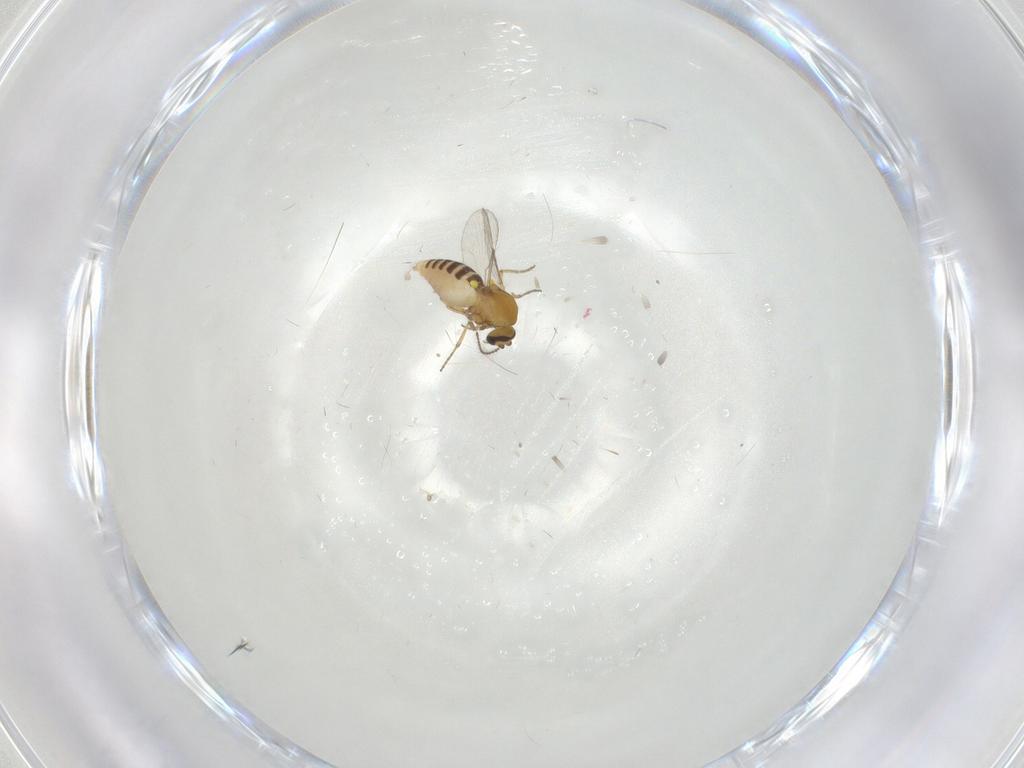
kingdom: Animalia
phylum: Arthropoda
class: Insecta
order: Diptera
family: Ceratopogonidae
